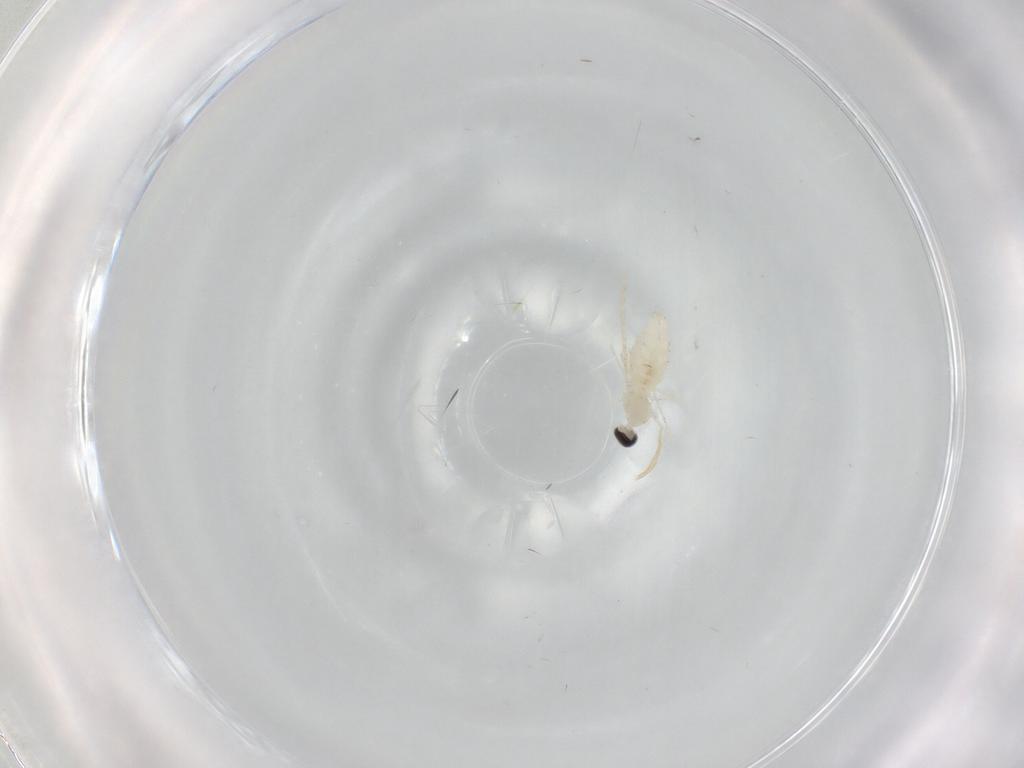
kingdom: Animalia
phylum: Arthropoda
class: Insecta
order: Diptera
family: Cecidomyiidae
